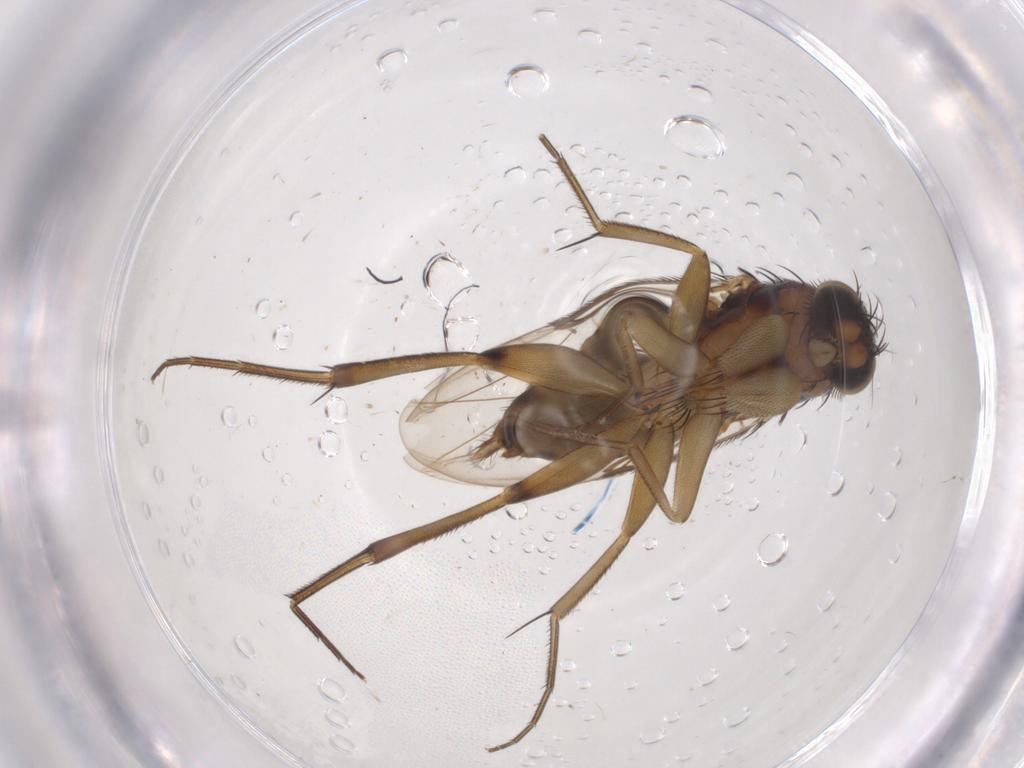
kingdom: Animalia
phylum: Arthropoda
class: Insecta
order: Diptera
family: Phoridae
